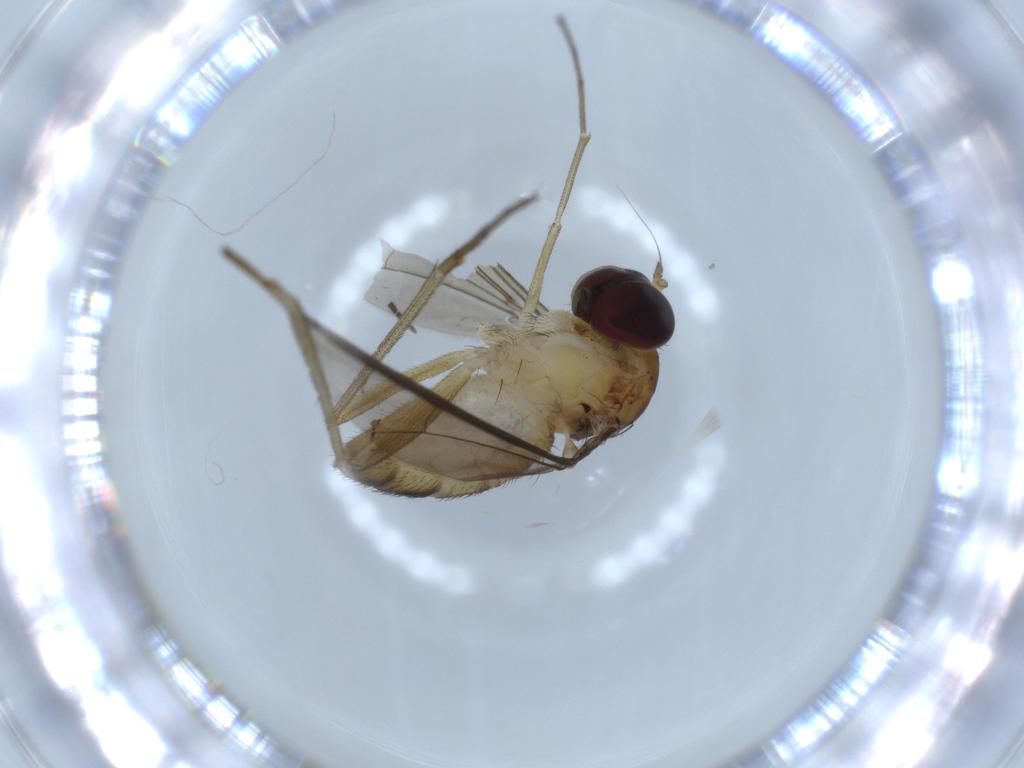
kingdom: Animalia
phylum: Arthropoda
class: Insecta
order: Diptera
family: Dolichopodidae
